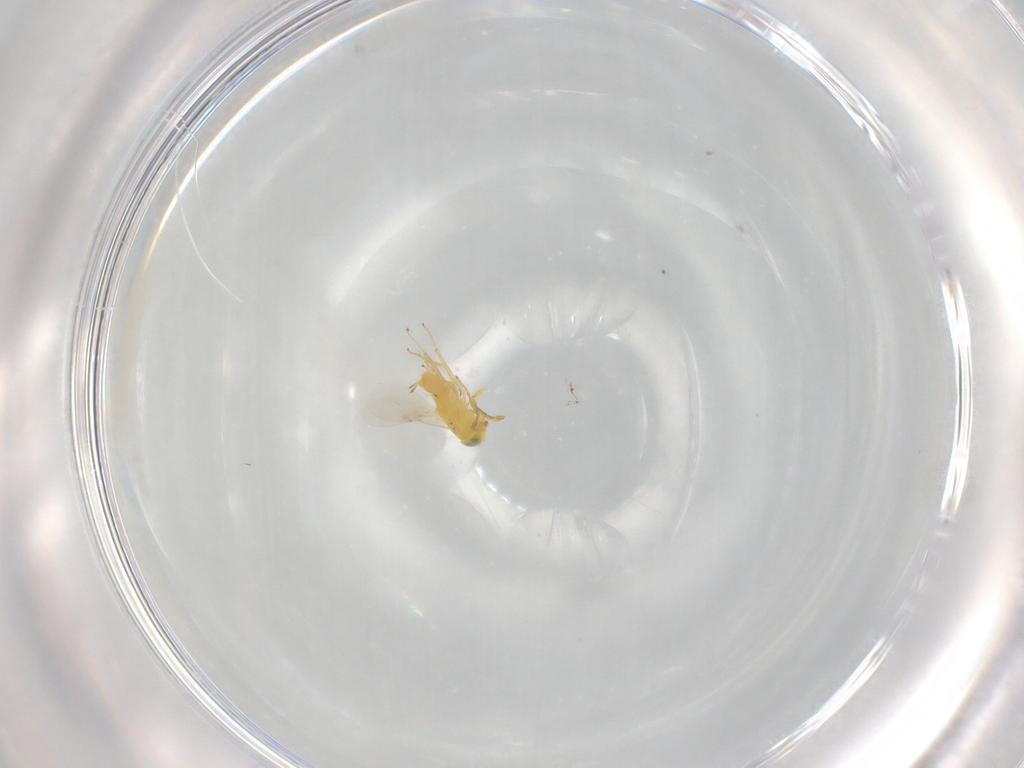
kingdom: Animalia
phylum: Arthropoda
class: Insecta
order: Hymenoptera
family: Encyrtidae
